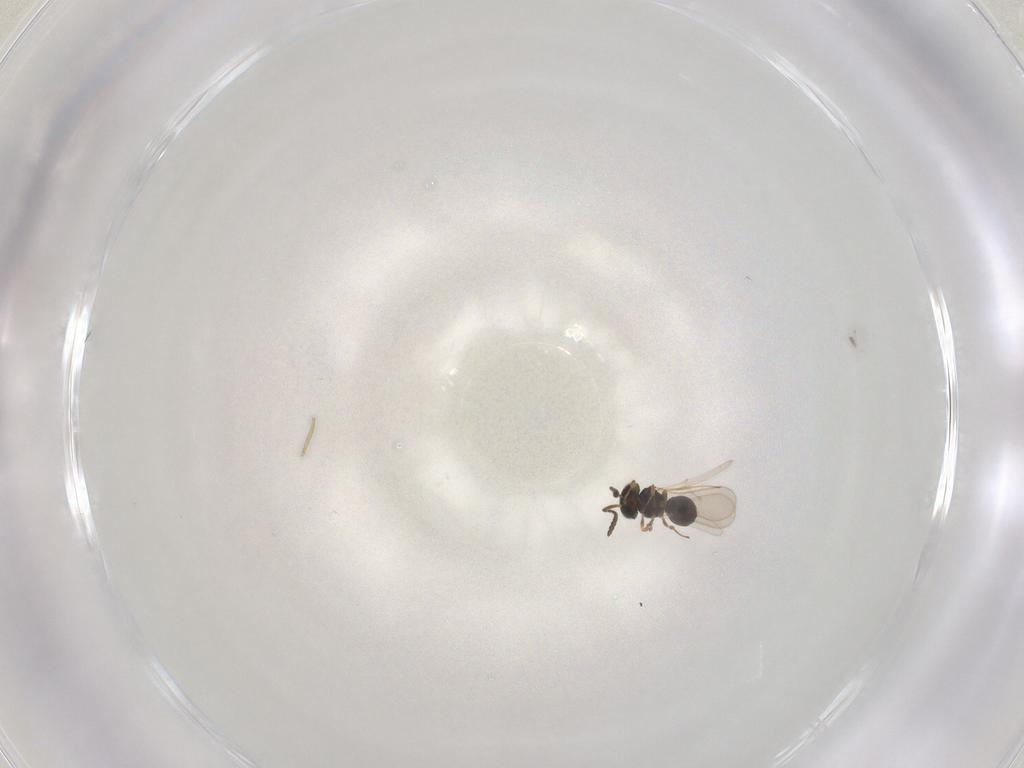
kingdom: Animalia
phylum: Arthropoda
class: Insecta
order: Hymenoptera
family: Scelionidae
